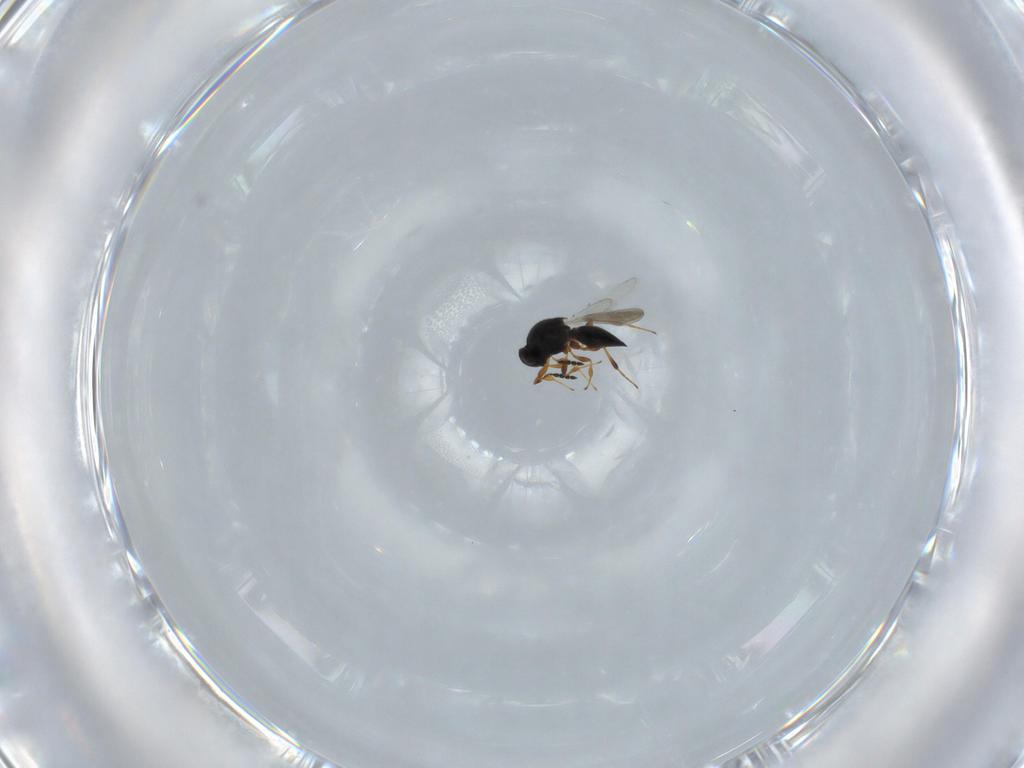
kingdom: Animalia
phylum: Arthropoda
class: Insecta
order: Hymenoptera
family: Platygastridae
